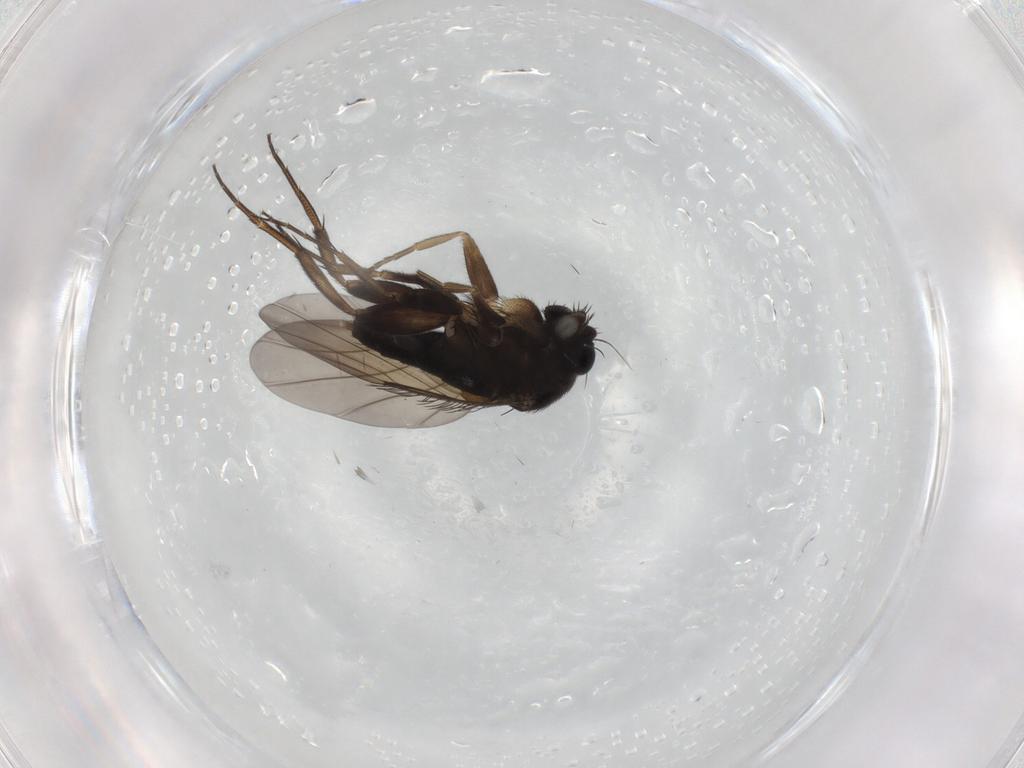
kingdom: Animalia
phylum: Arthropoda
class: Insecta
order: Diptera
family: Phoridae
